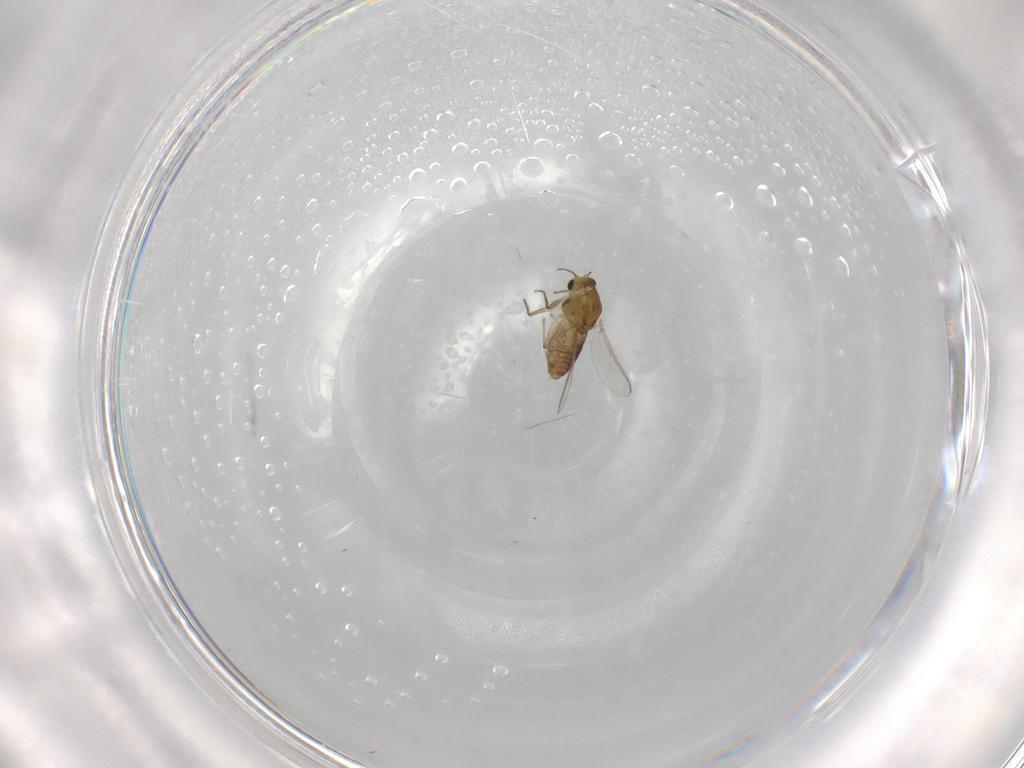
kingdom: Animalia
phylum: Arthropoda
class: Insecta
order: Diptera
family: Chironomidae
